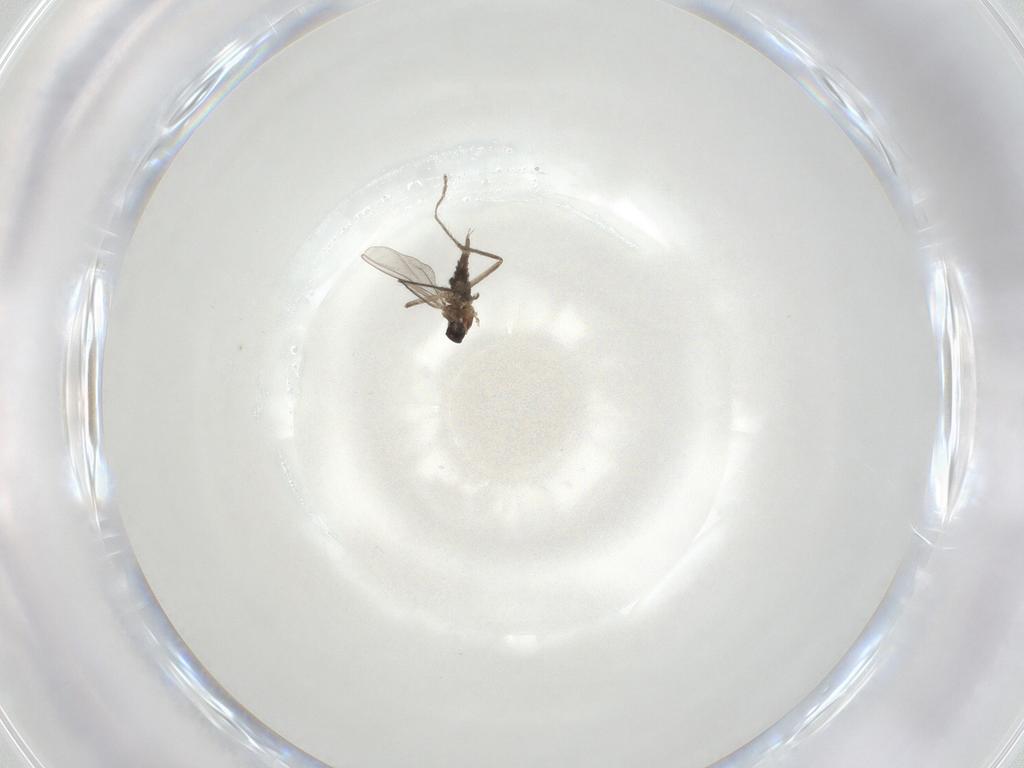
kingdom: Animalia
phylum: Arthropoda
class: Insecta
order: Diptera
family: Cecidomyiidae
